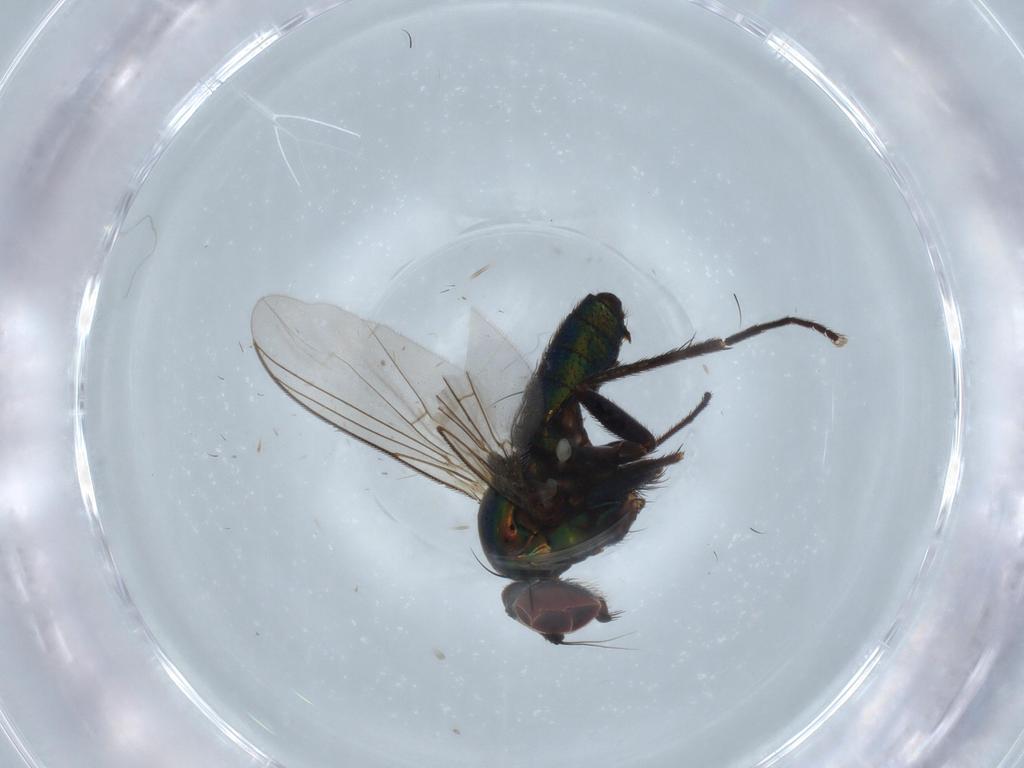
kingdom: Animalia
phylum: Arthropoda
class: Insecta
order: Diptera
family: Dolichopodidae
